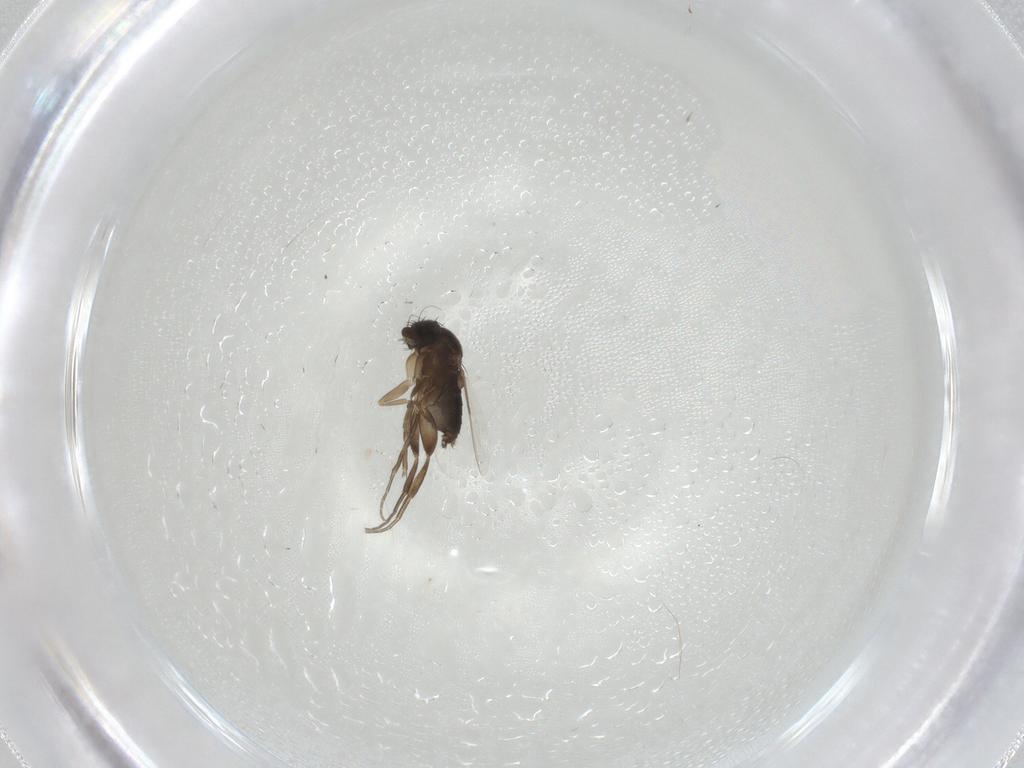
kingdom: Animalia
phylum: Arthropoda
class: Insecta
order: Diptera
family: Phoridae
